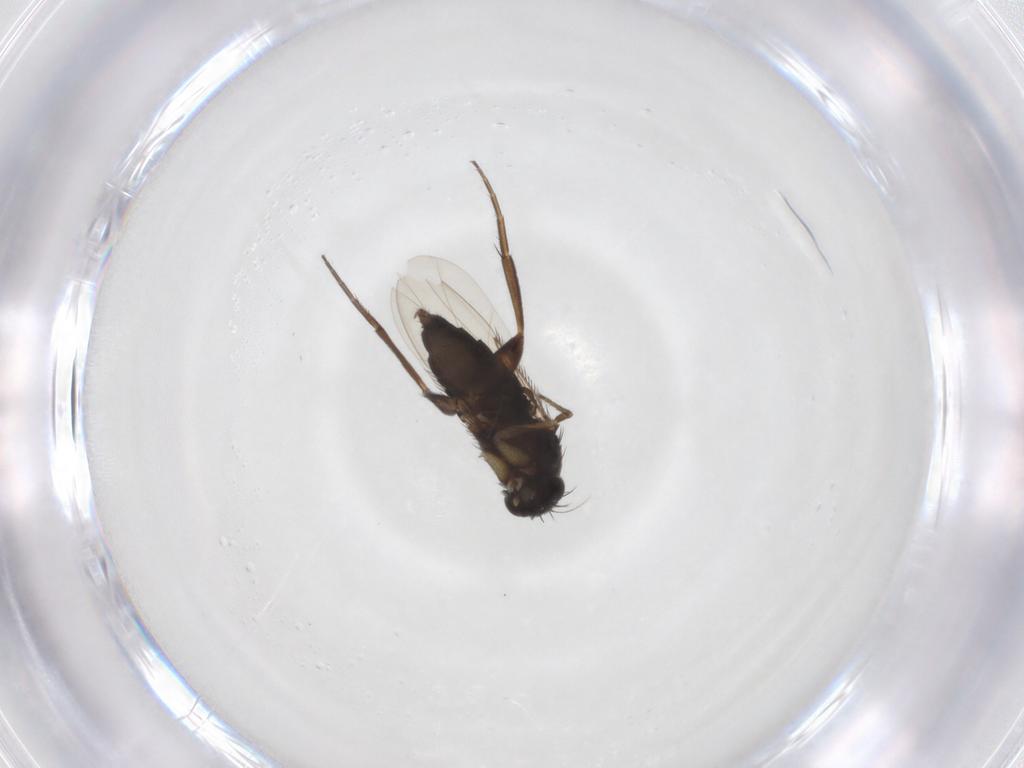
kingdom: Animalia
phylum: Arthropoda
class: Insecta
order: Diptera
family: Phoridae
